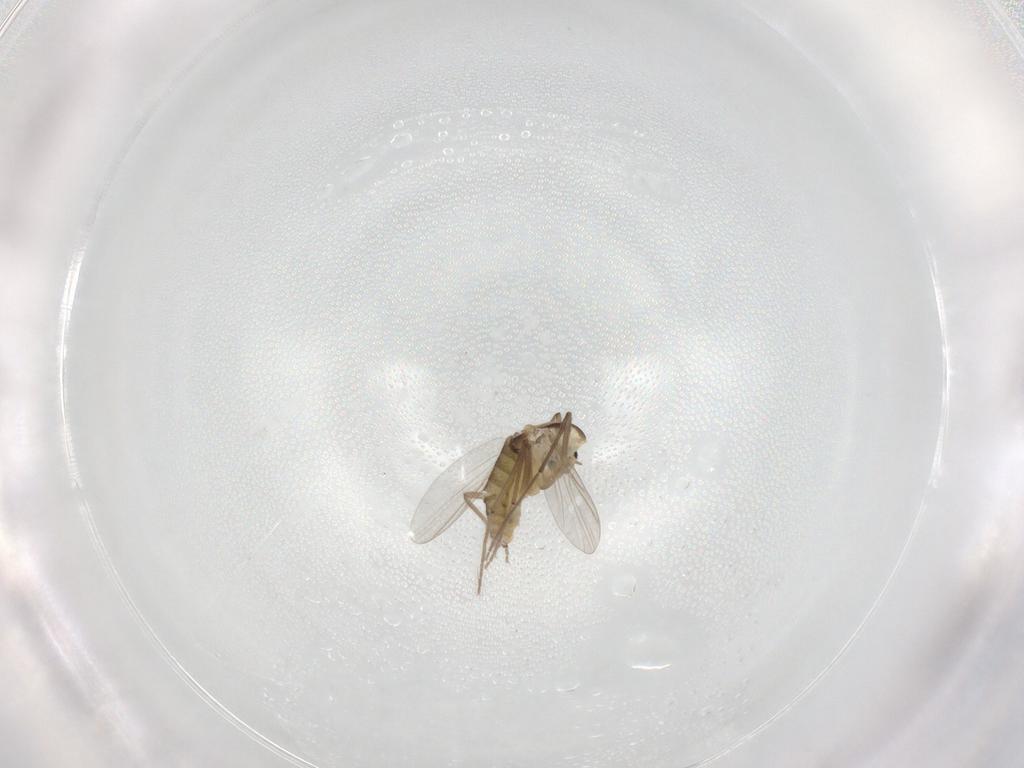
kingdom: Animalia
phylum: Arthropoda
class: Insecta
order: Diptera
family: Chironomidae
